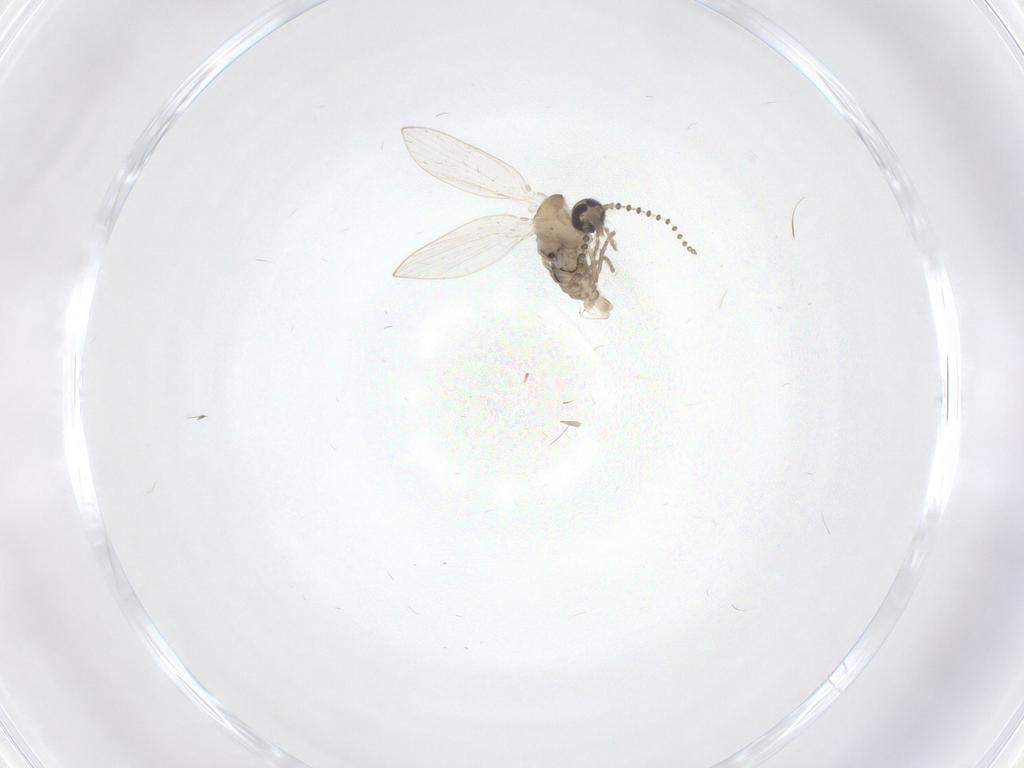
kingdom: Animalia
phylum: Arthropoda
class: Insecta
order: Diptera
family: Psychodidae
